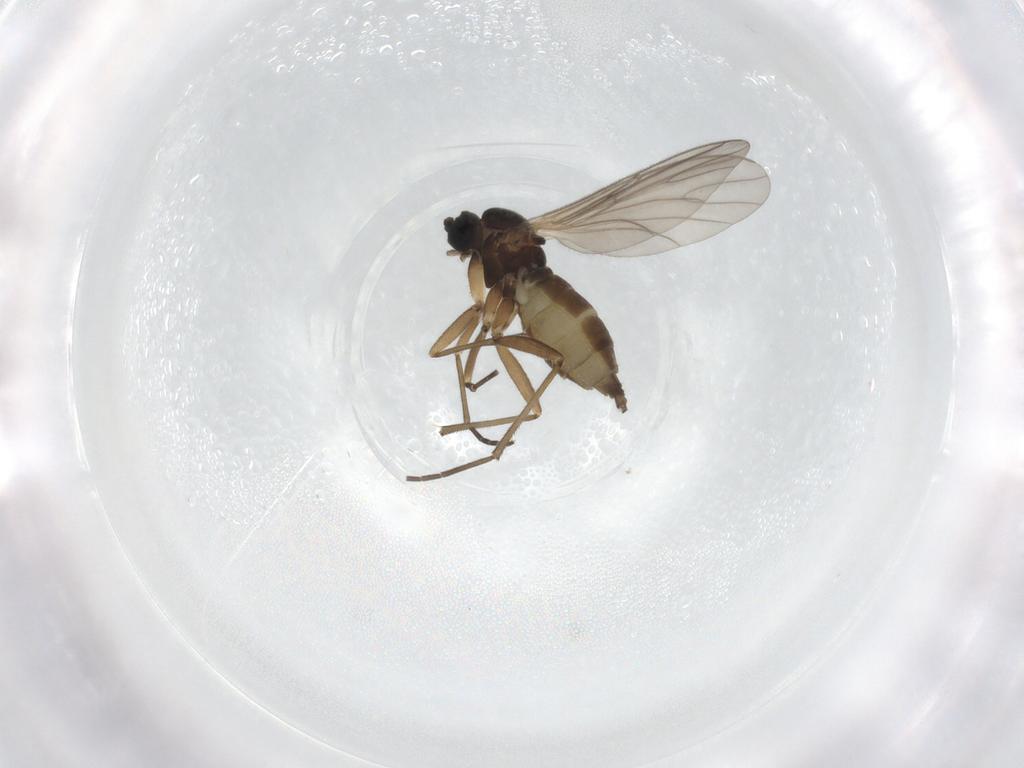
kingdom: Animalia
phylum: Arthropoda
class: Insecta
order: Diptera
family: Sciaridae
